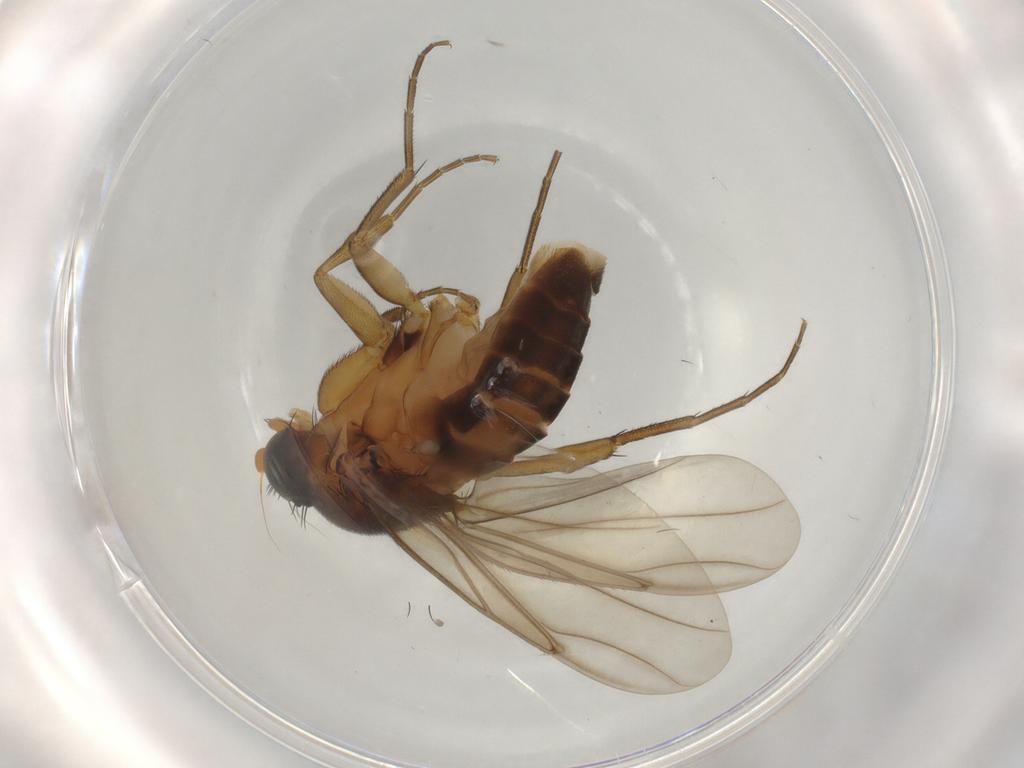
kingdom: Animalia
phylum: Arthropoda
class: Insecta
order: Diptera
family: Phoridae
